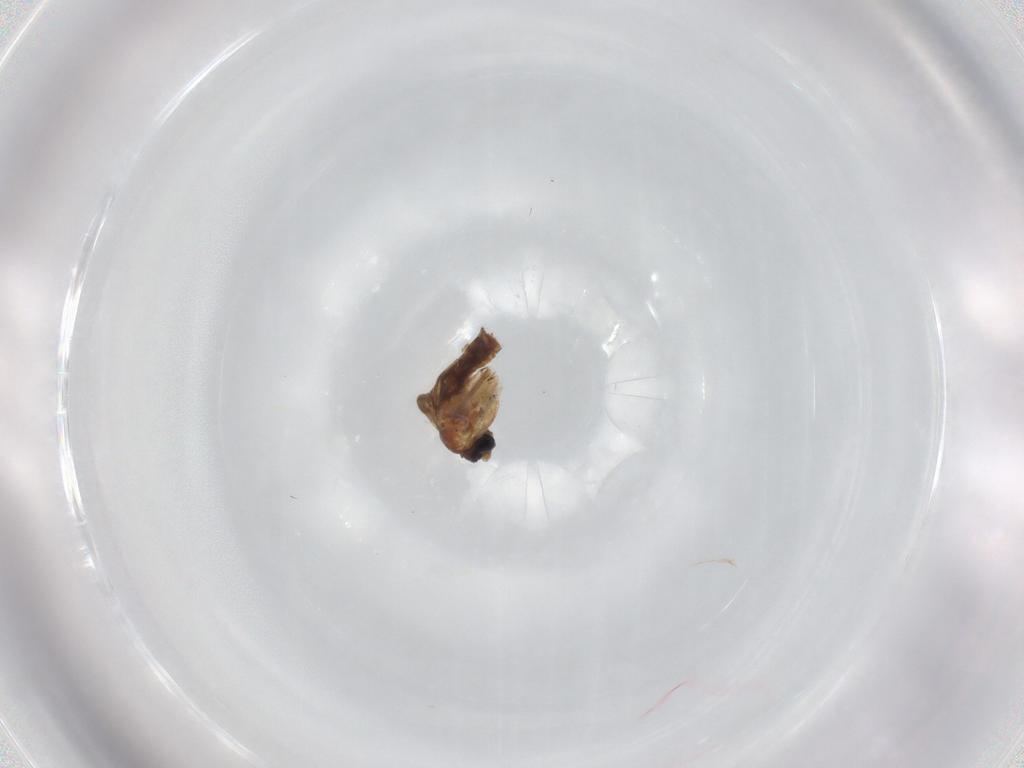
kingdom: Animalia
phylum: Arthropoda
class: Insecta
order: Diptera
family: Sciaridae
